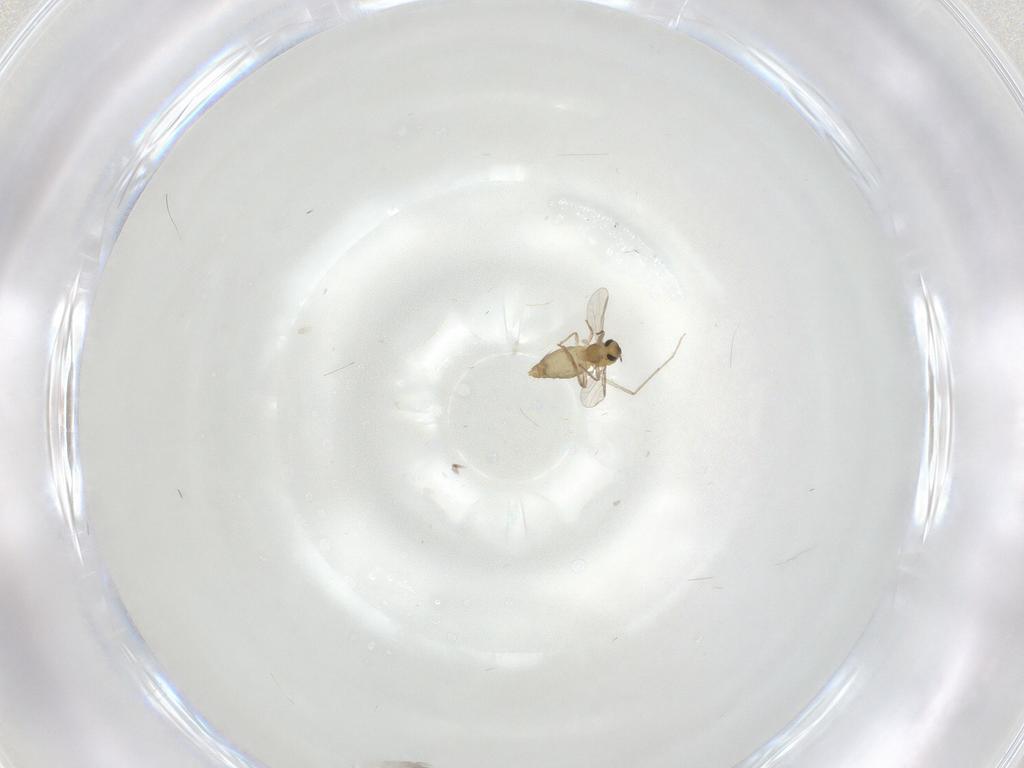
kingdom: Animalia
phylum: Arthropoda
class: Insecta
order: Diptera
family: Chironomidae
